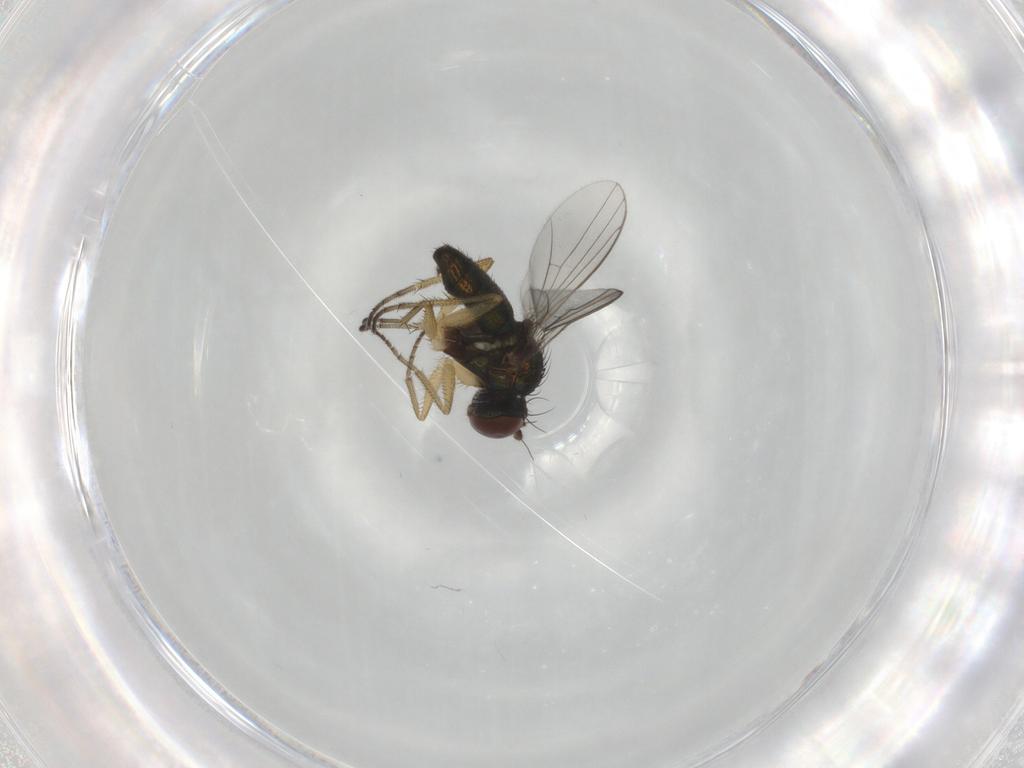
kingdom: Animalia
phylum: Arthropoda
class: Insecta
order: Diptera
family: Dolichopodidae
